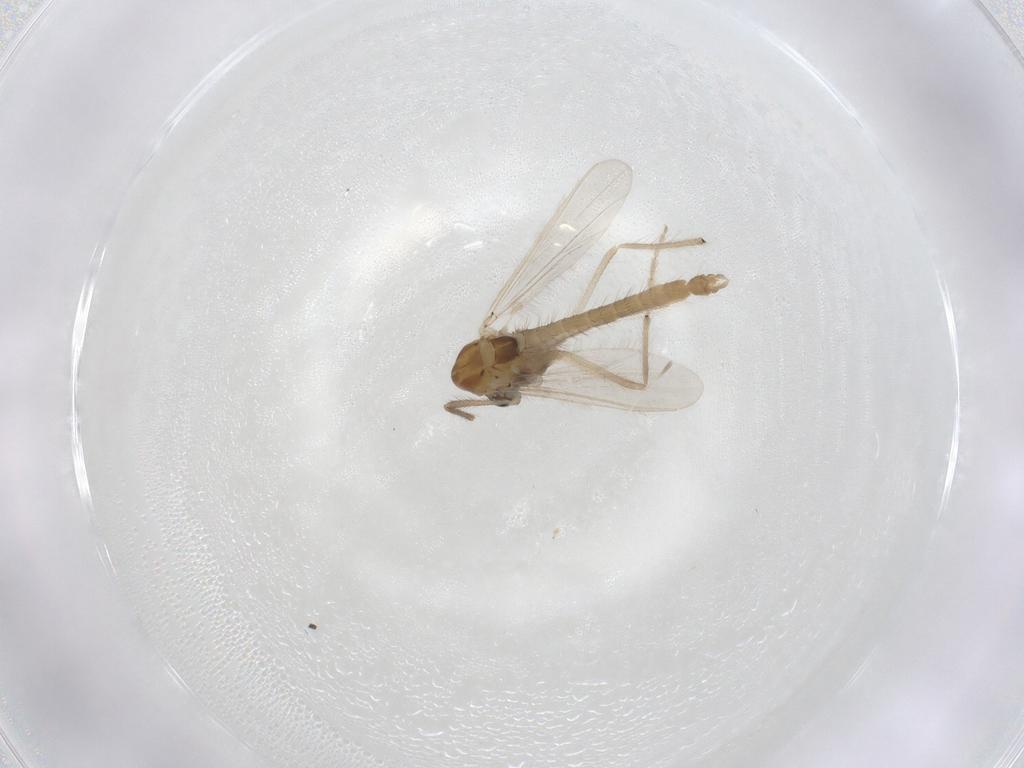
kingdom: Animalia
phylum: Arthropoda
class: Insecta
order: Diptera
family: Chironomidae
